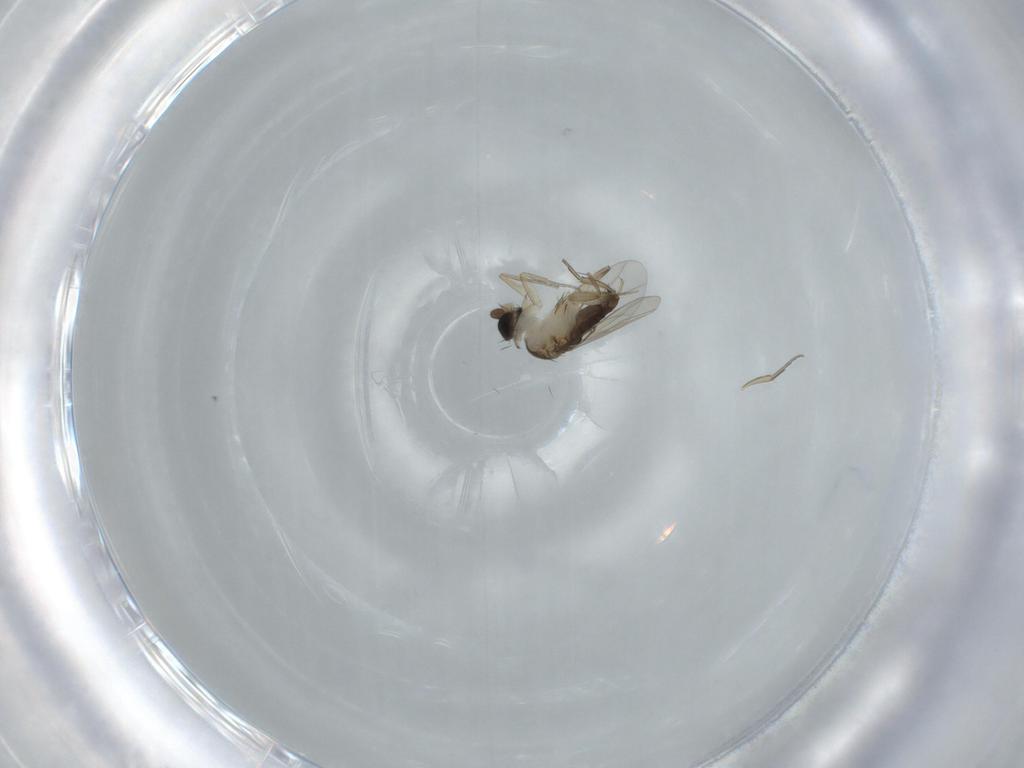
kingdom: Animalia
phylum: Arthropoda
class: Insecta
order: Diptera
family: Phoridae
